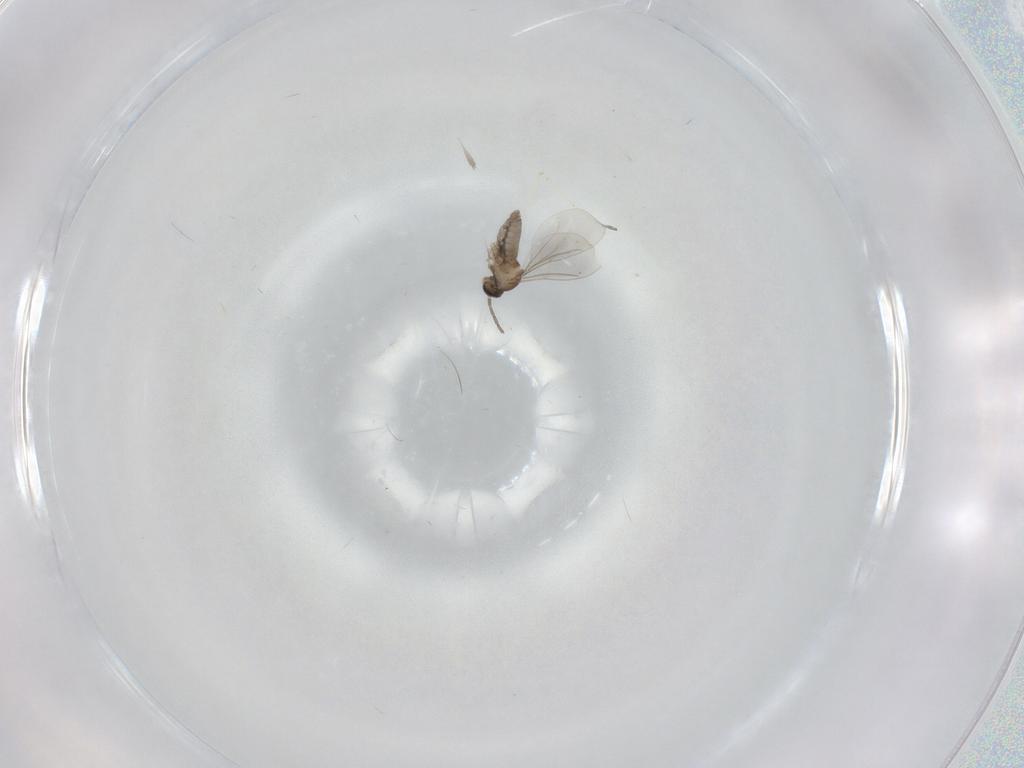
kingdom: Animalia
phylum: Arthropoda
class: Insecta
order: Diptera
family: Cecidomyiidae
